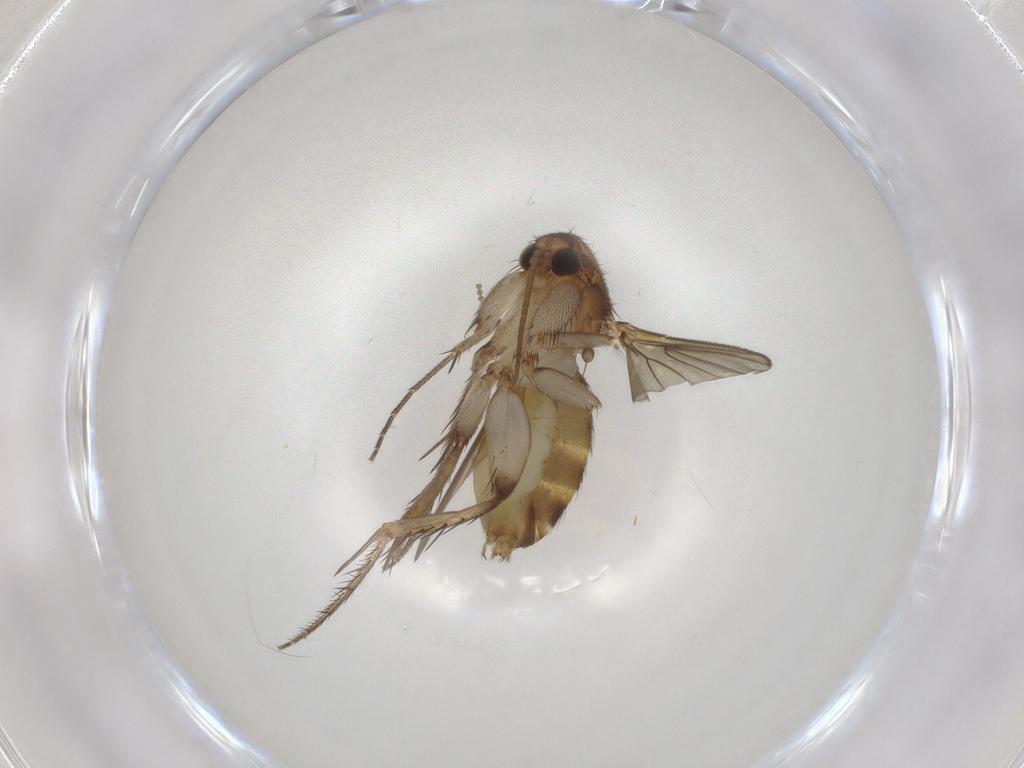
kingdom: Animalia
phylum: Arthropoda
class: Insecta
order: Diptera
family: Mycetophilidae
